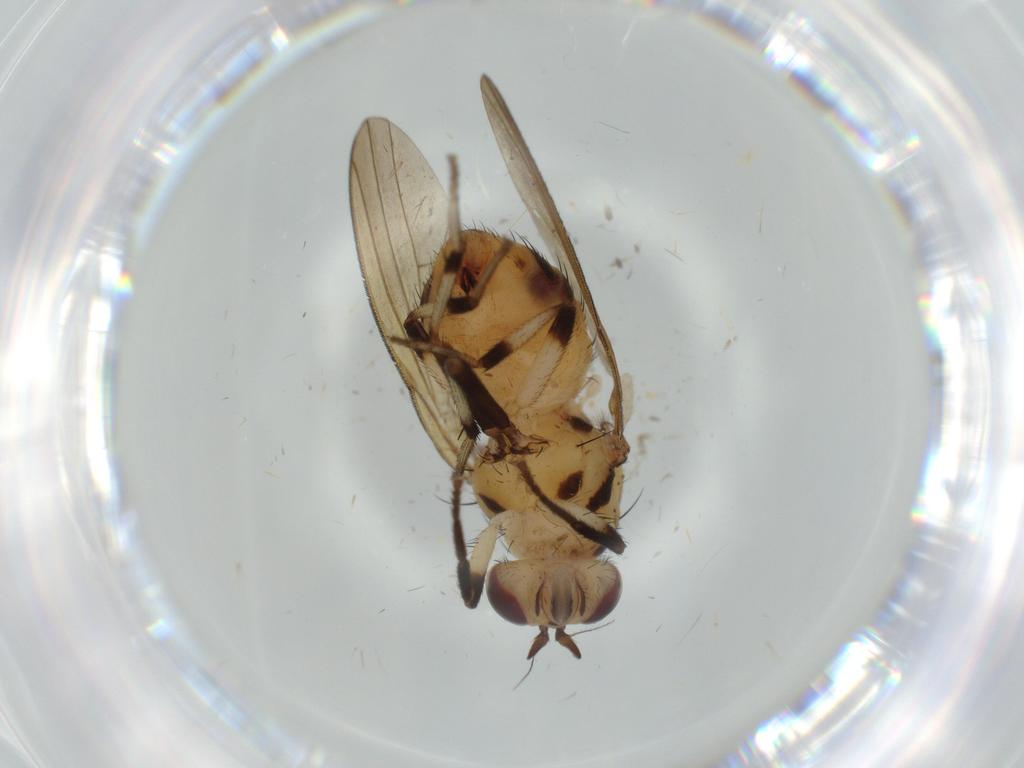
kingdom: Animalia
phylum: Arthropoda
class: Insecta
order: Diptera
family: Lauxaniidae
